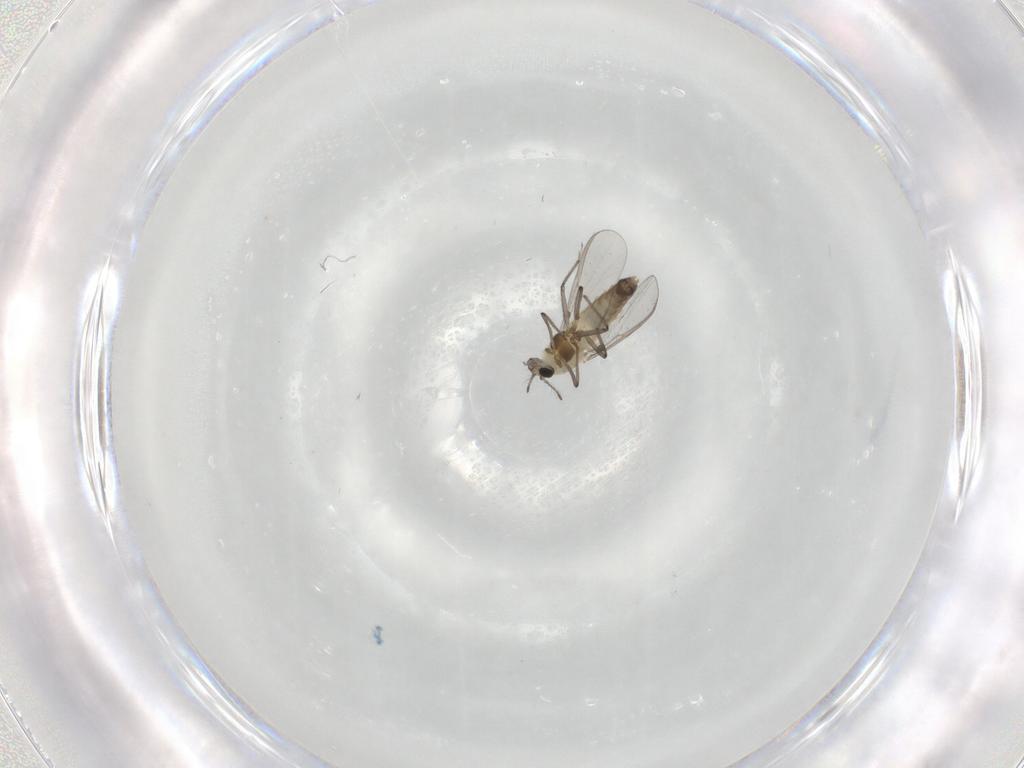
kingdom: Animalia
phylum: Arthropoda
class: Insecta
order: Diptera
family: Chironomidae
